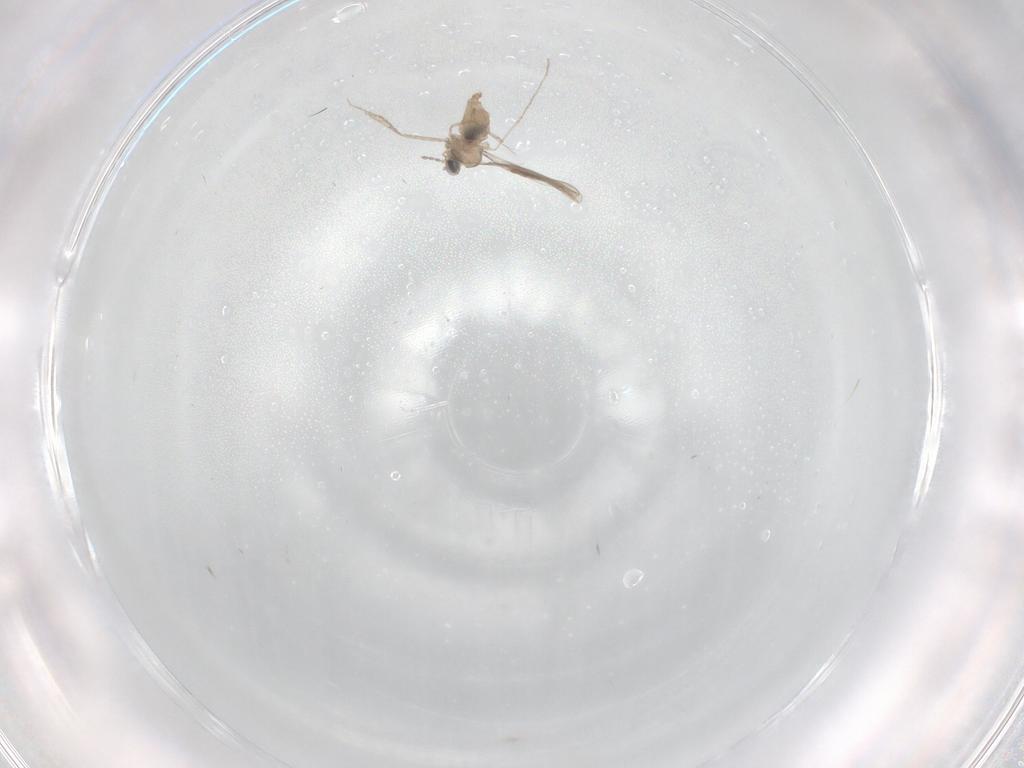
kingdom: Animalia
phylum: Arthropoda
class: Insecta
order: Diptera
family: Cecidomyiidae
